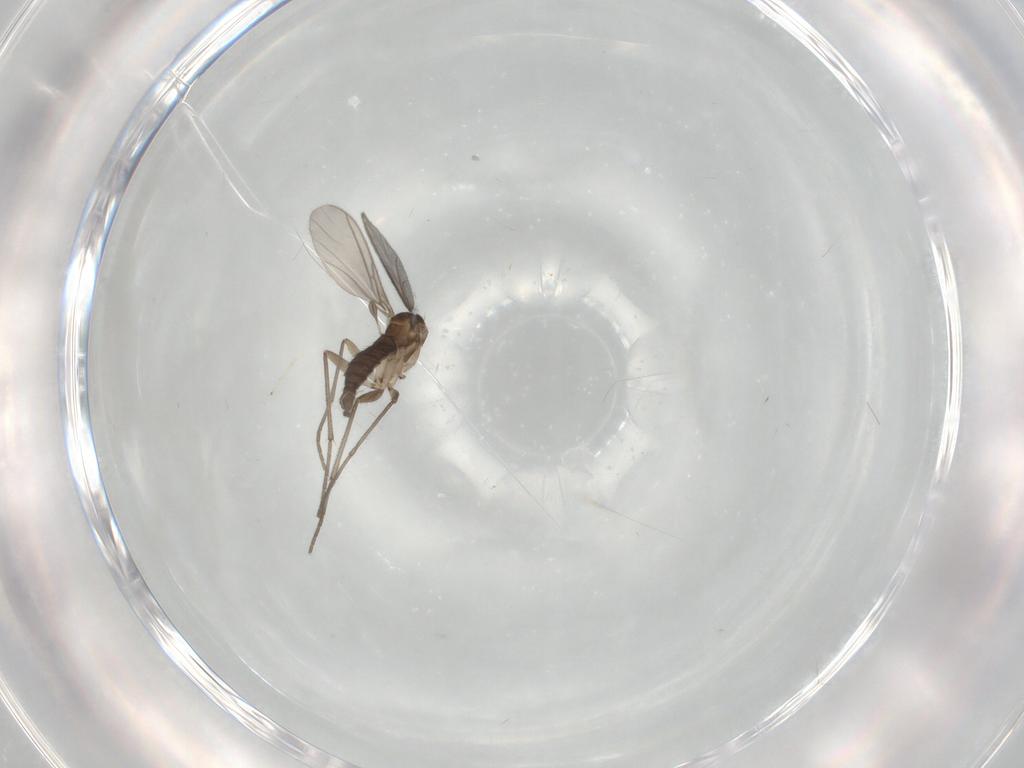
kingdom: Animalia
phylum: Arthropoda
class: Insecta
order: Diptera
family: Sciaridae
